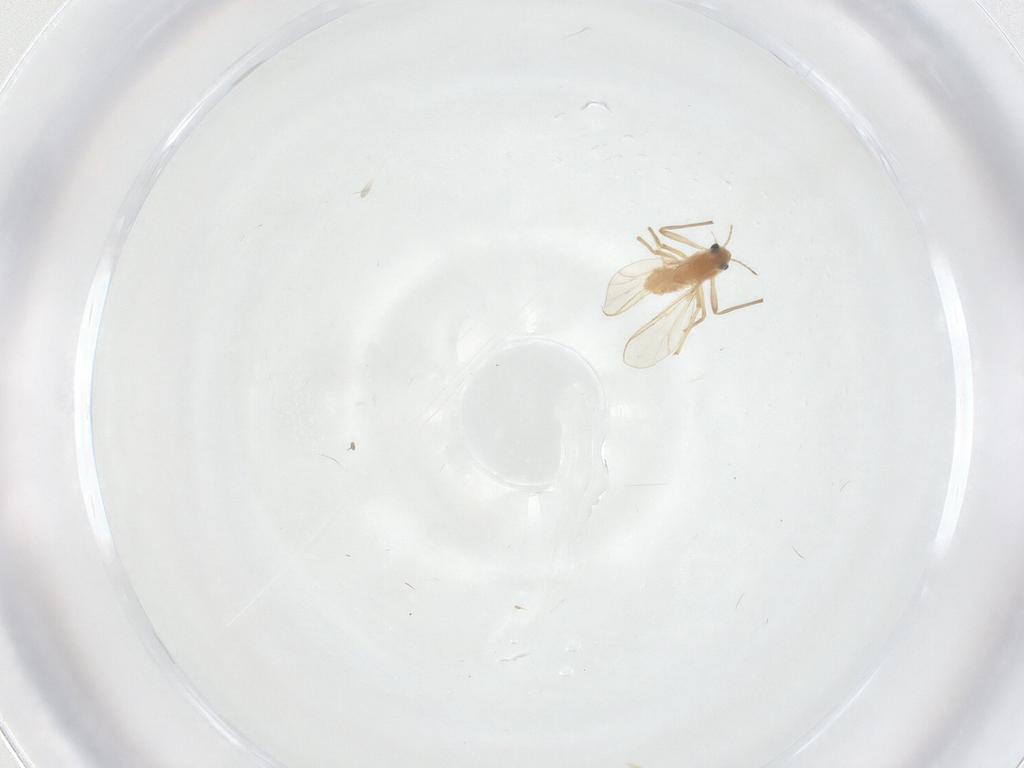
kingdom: Animalia
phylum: Arthropoda
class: Insecta
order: Diptera
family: Chironomidae
